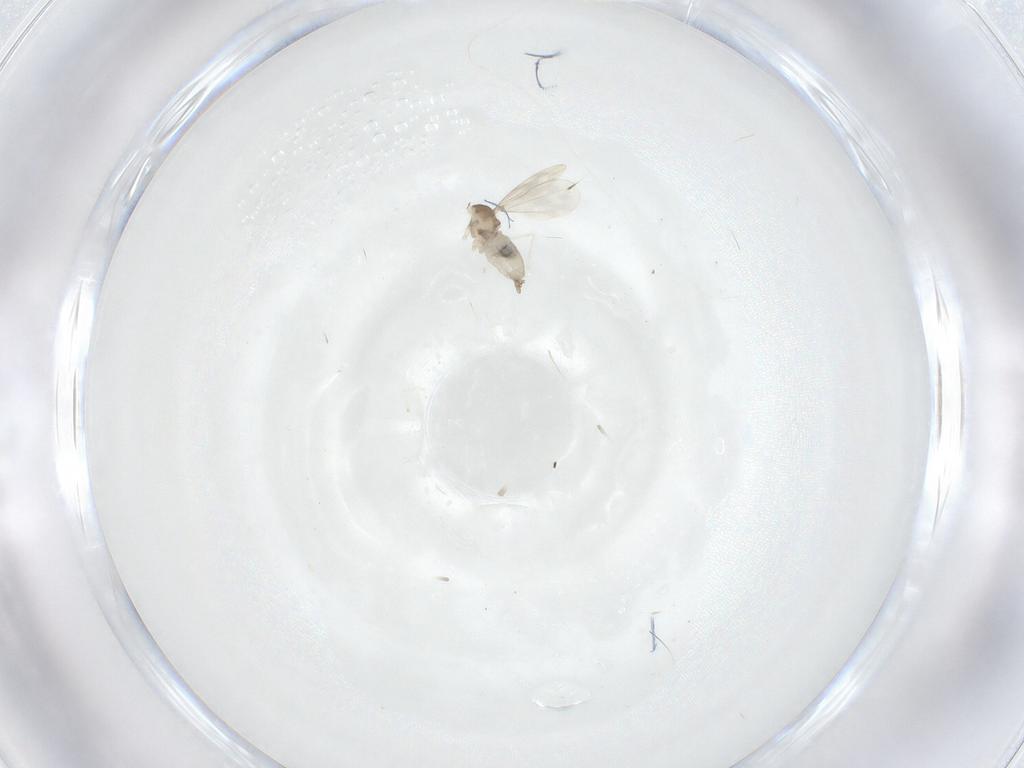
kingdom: Animalia
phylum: Arthropoda
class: Insecta
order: Diptera
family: Cecidomyiidae
